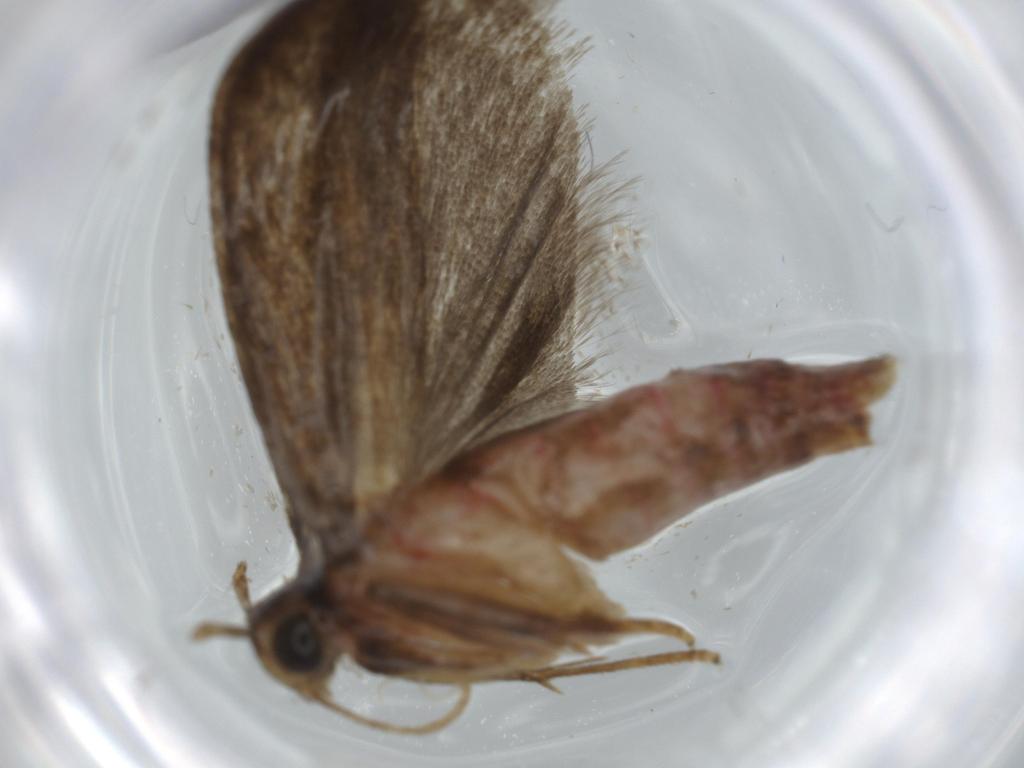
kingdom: Animalia
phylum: Arthropoda
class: Insecta
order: Lepidoptera
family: Autostichidae
